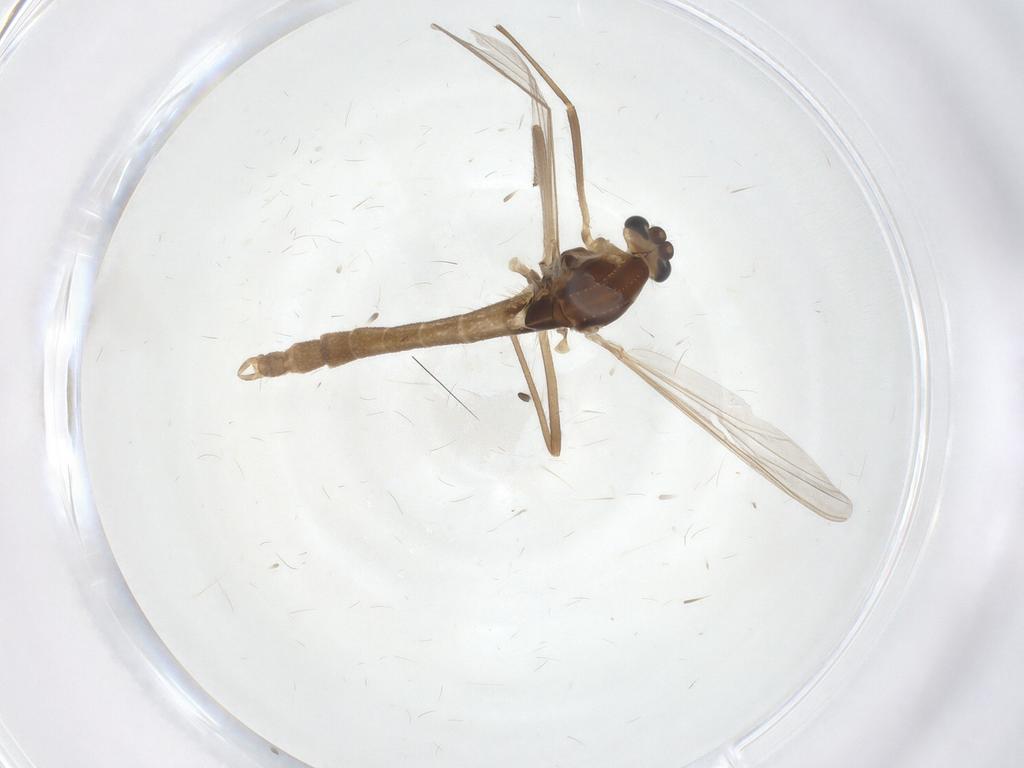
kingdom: Animalia
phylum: Arthropoda
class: Insecta
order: Diptera
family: Chironomidae
